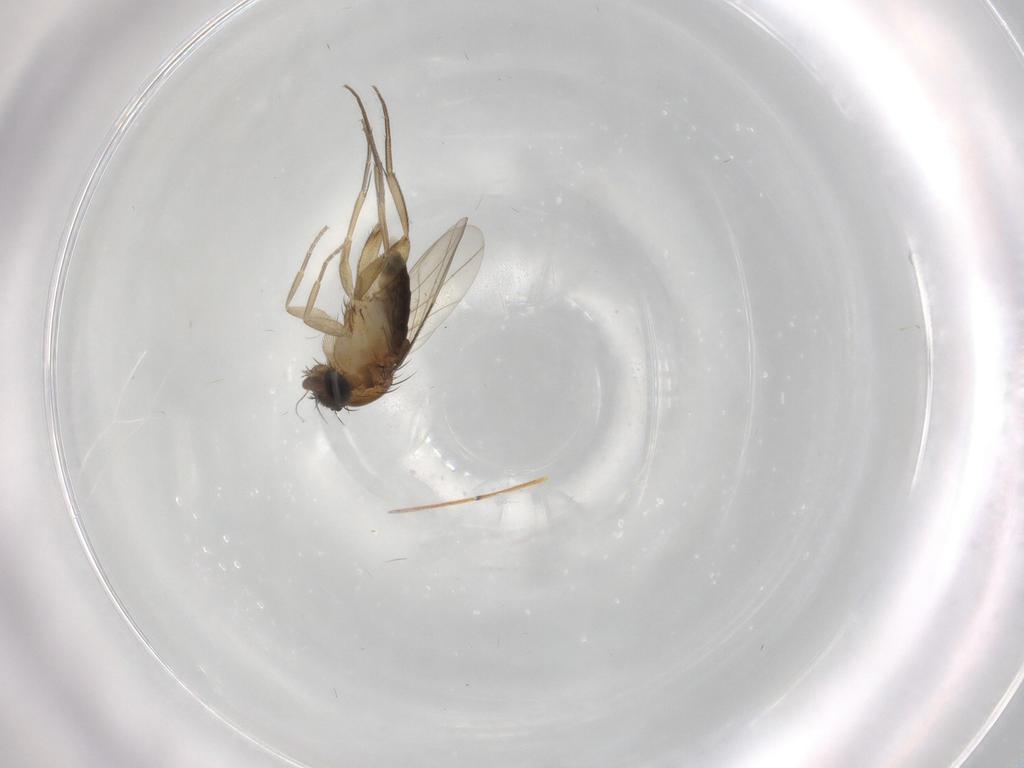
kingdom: Animalia
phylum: Arthropoda
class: Insecta
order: Diptera
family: Phoridae
